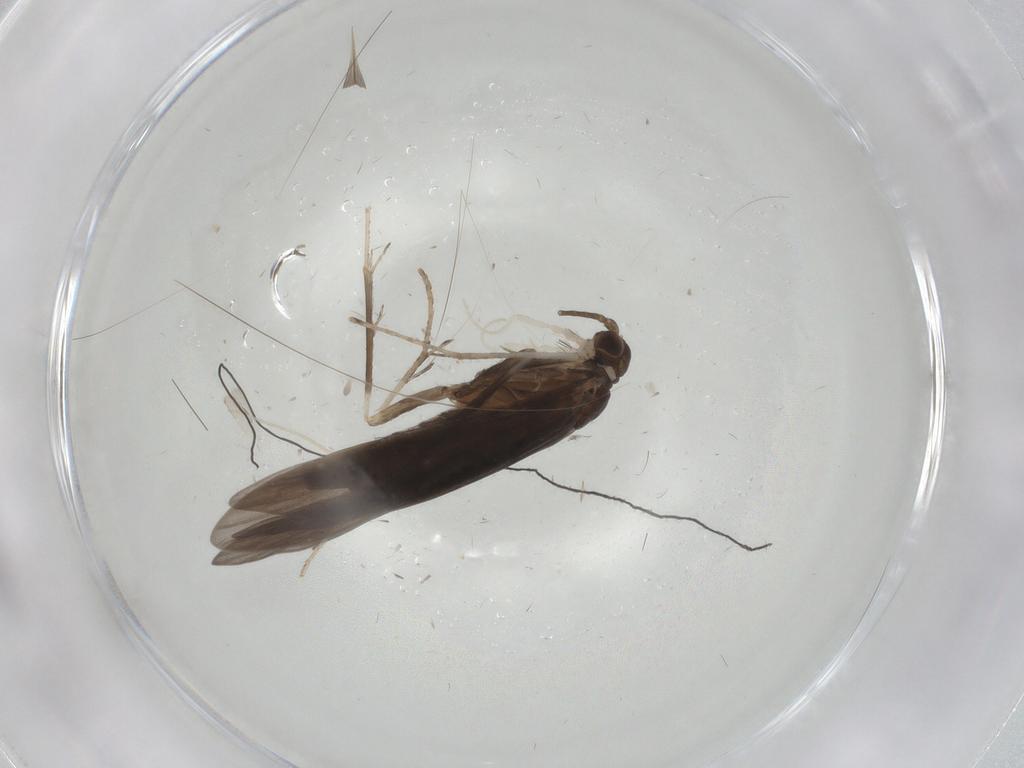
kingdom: Animalia
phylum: Arthropoda
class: Insecta
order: Trichoptera
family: Xiphocentronidae
